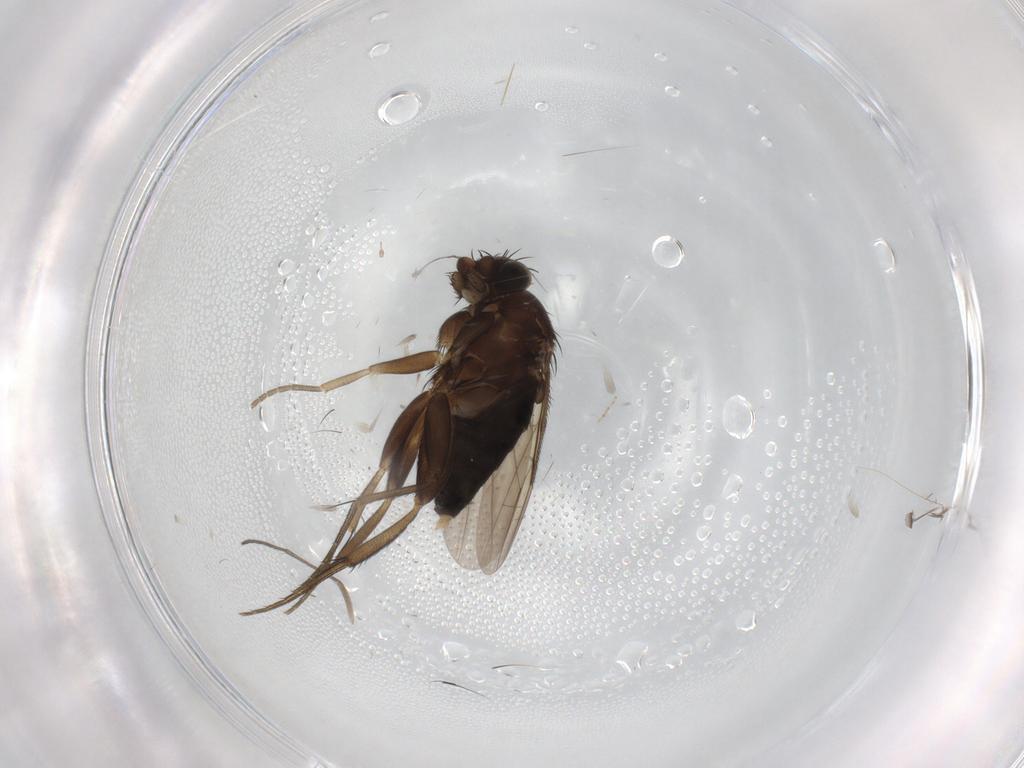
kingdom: Animalia
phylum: Arthropoda
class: Insecta
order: Diptera
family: Phoridae
